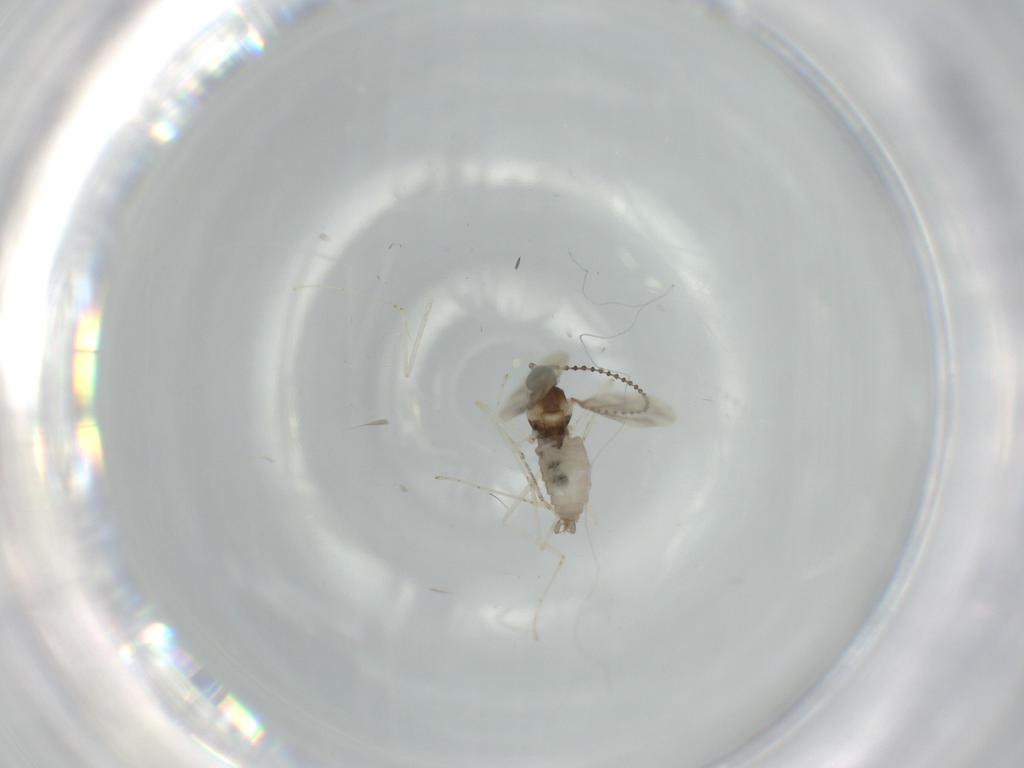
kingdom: Animalia
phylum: Arthropoda
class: Insecta
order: Diptera
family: Cecidomyiidae
